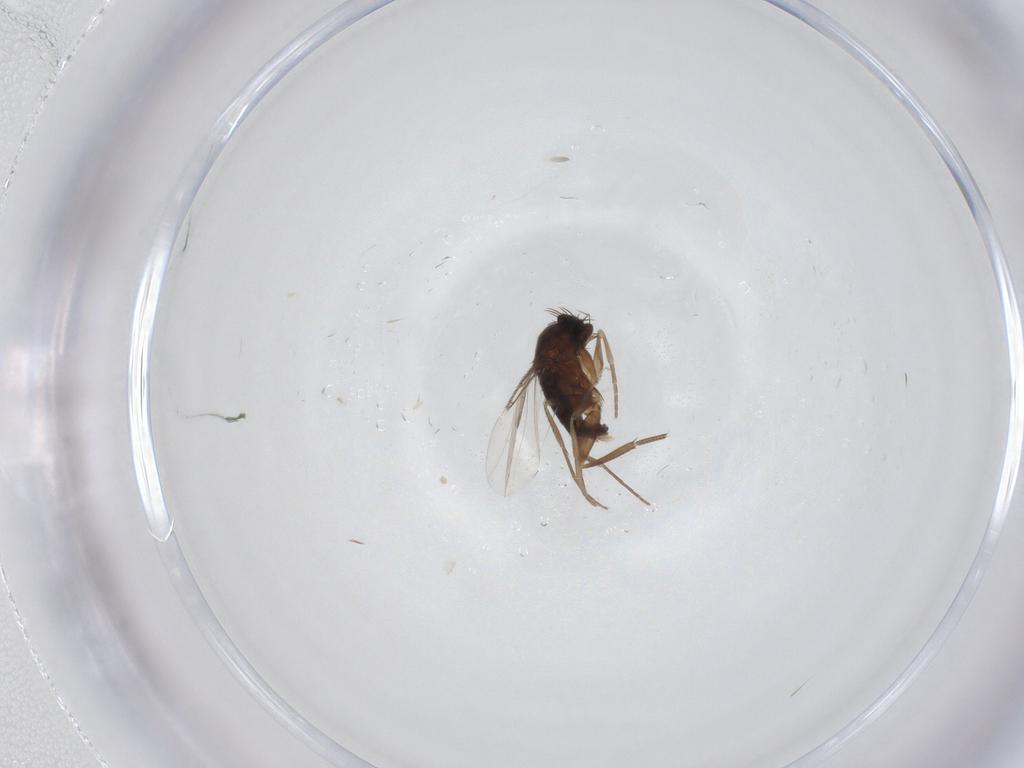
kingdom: Animalia
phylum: Arthropoda
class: Insecta
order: Diptera
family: Phoridae
